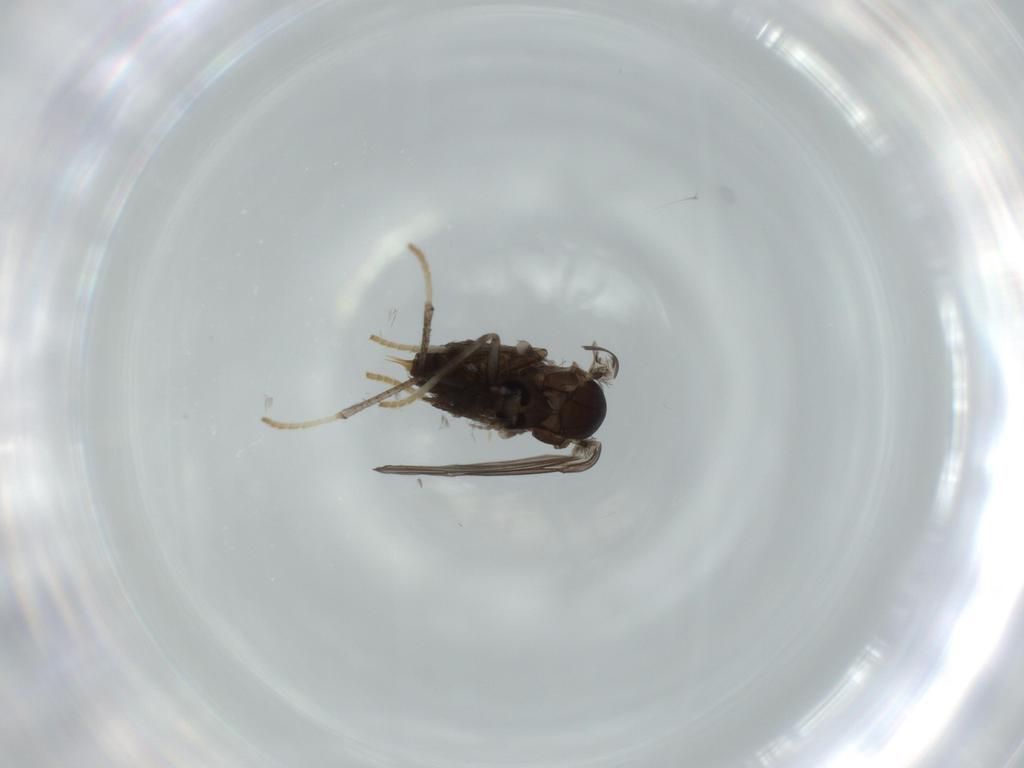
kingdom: Animalia
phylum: Arthropoda
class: Insecta
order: Diptera
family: Psychodidae
